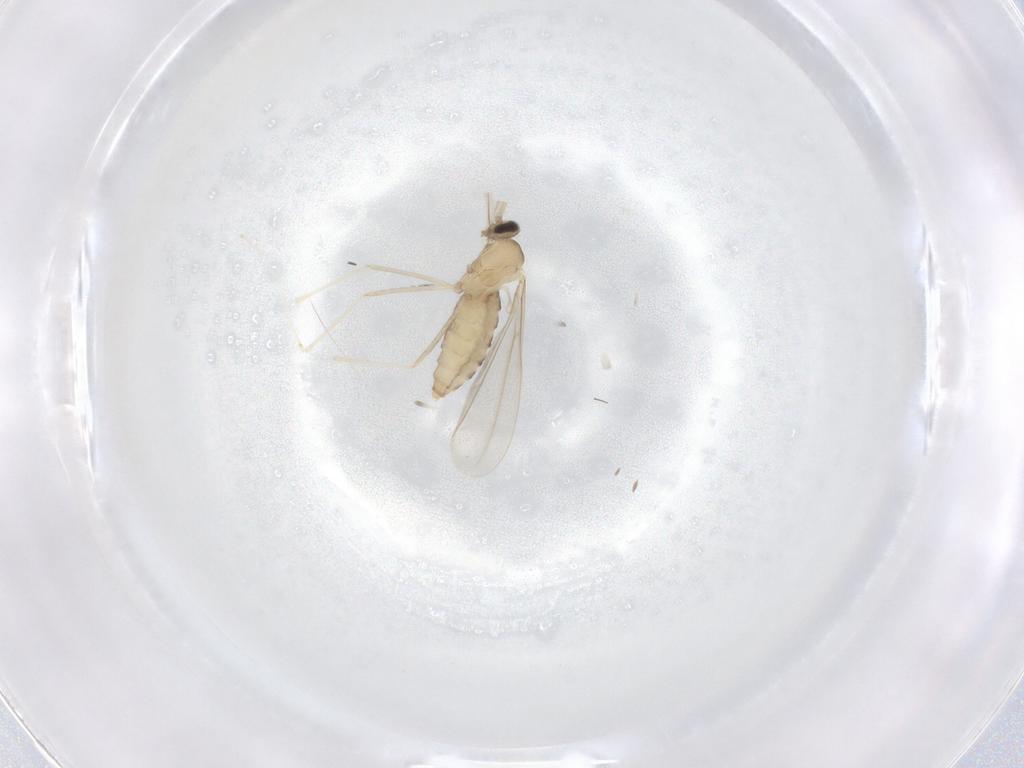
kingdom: Animalia
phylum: Arthropoda
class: Insecta
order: Diptera
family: Cecidomyiidae
